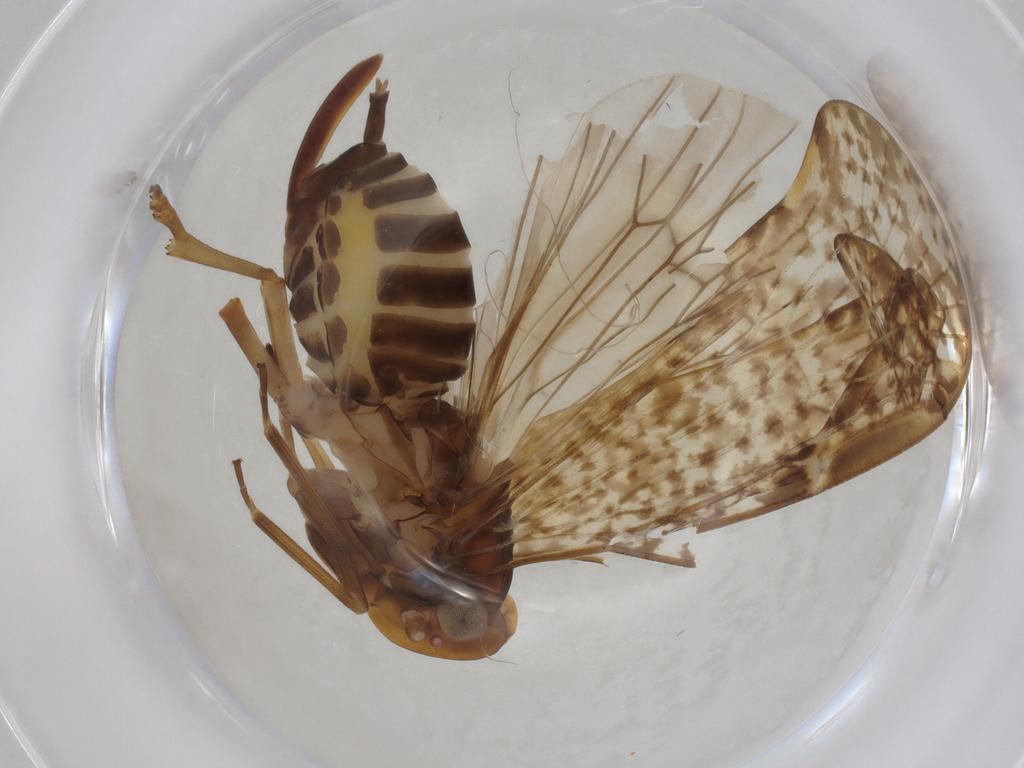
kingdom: Animalia
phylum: Arthropoda
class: Insecta
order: Hemiptera
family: Cixiidae
